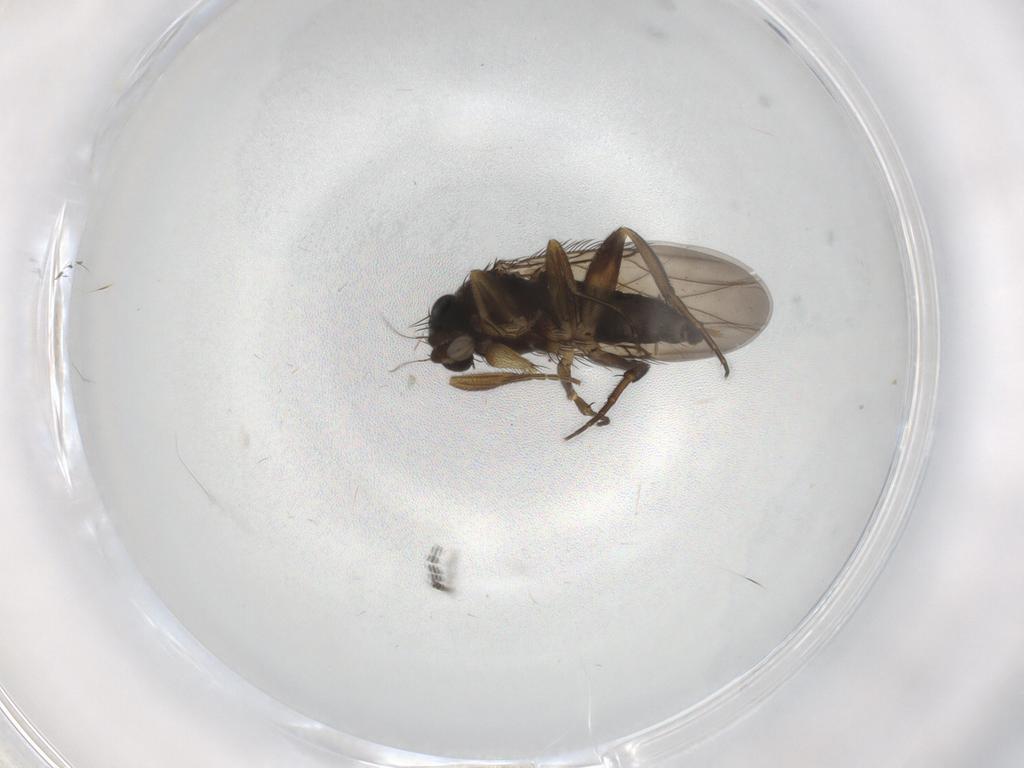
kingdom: Animalia
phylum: Arthropoda
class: Insecta
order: Diptera
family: Phoridae
